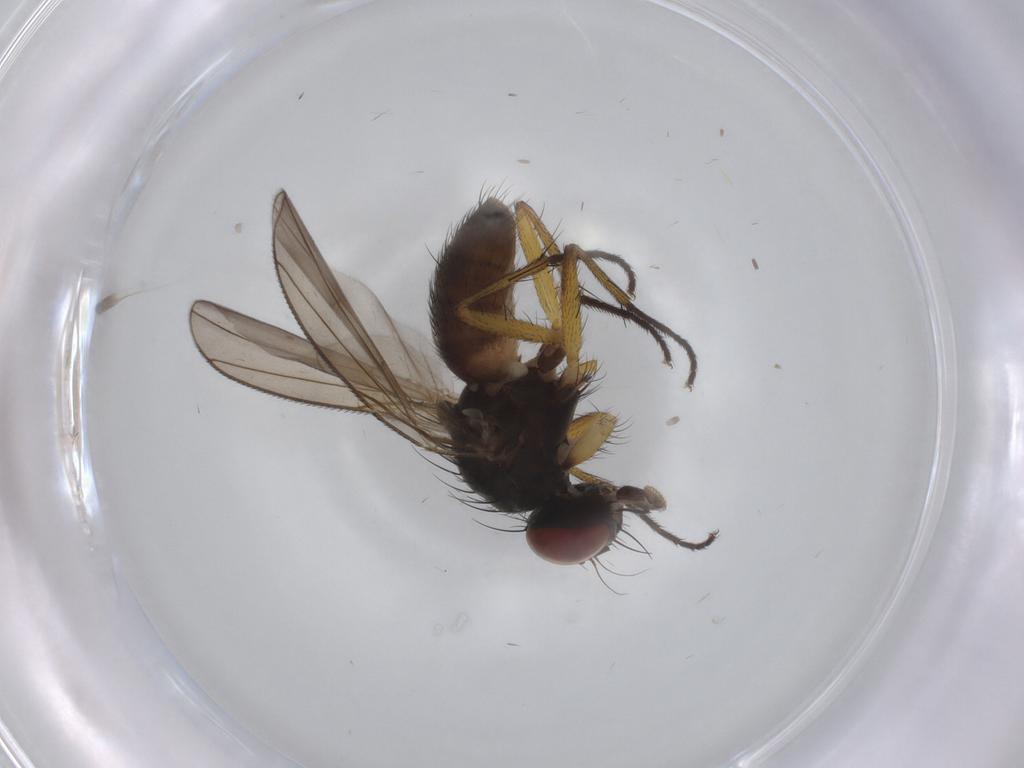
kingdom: Animalia
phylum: Arthropoda
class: Insecta
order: Diptera
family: Muscidae
